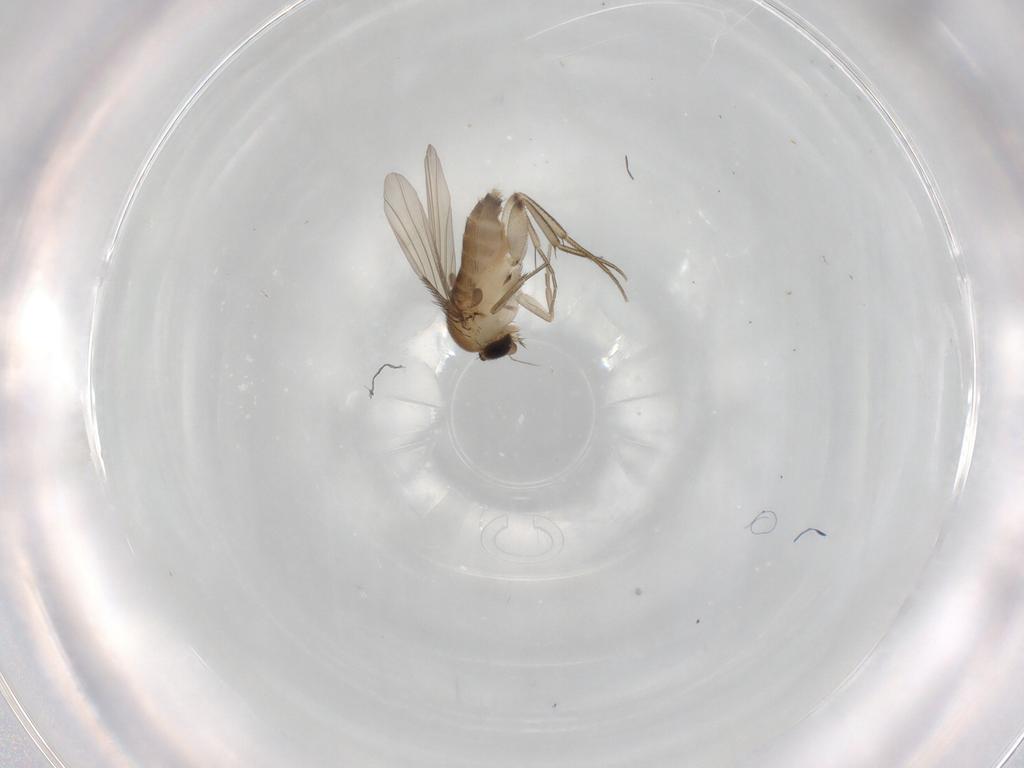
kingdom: Animalia
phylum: Arthropoda
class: Insecta
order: Diptera
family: Phoridae
